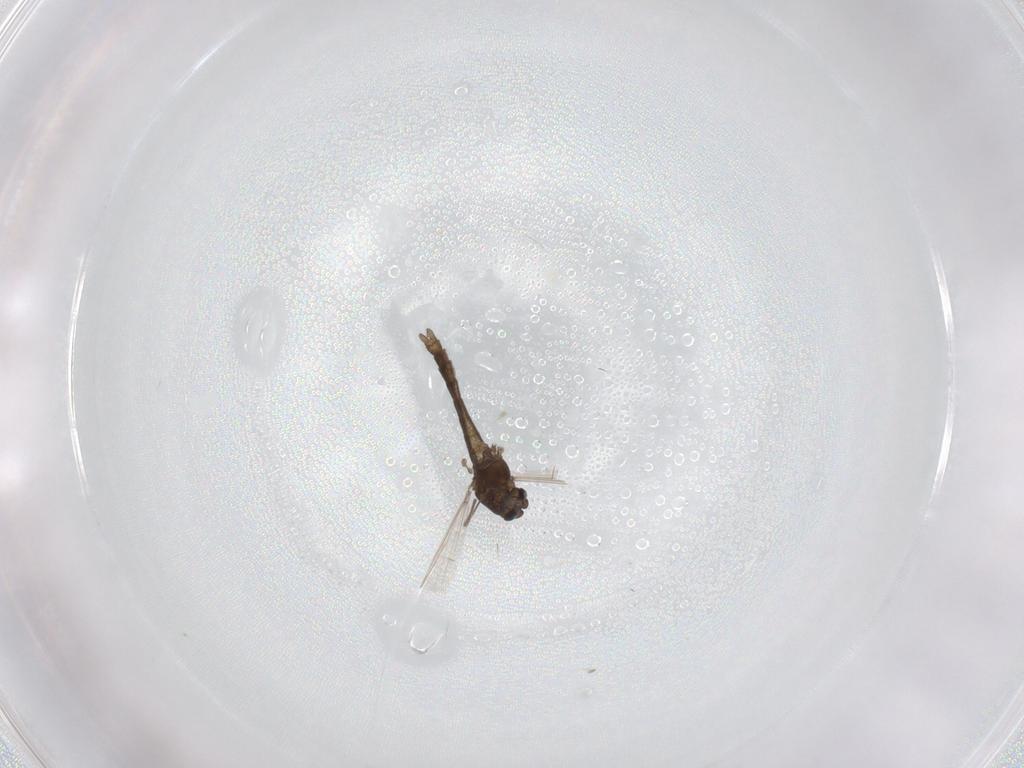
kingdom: Animalia
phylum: Arthropoda
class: Insecta
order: Diptera
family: Chironomidae
